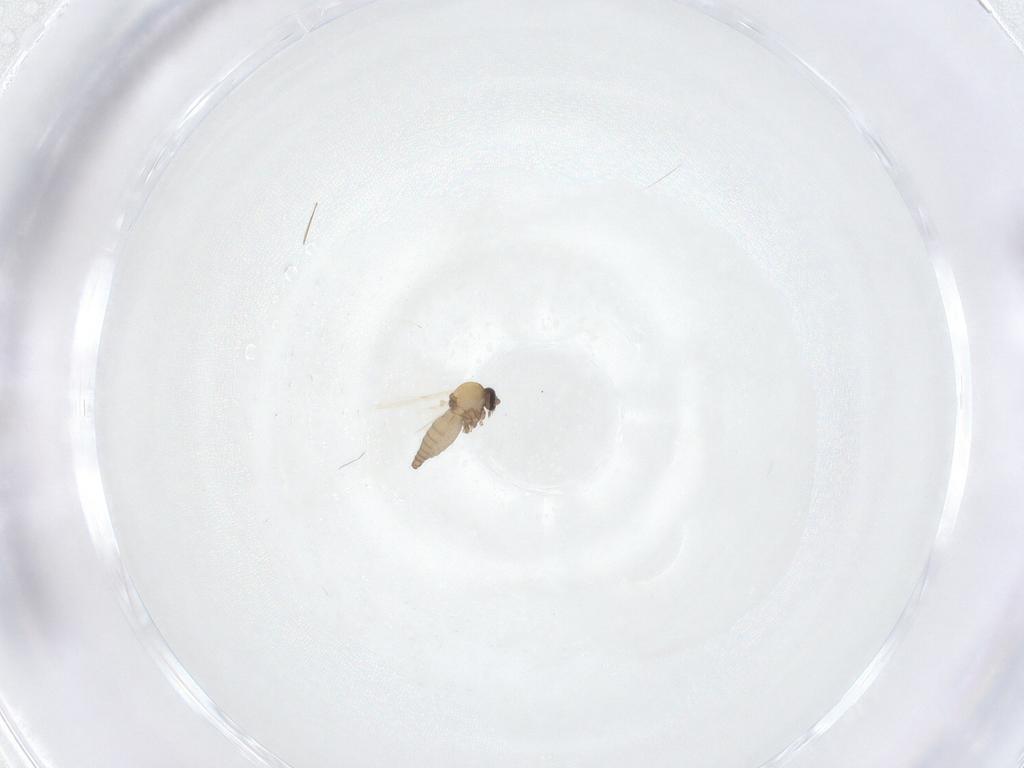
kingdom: Animalia
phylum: Arthropoda
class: Insecta
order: Diptera
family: Cecidomyiidae
